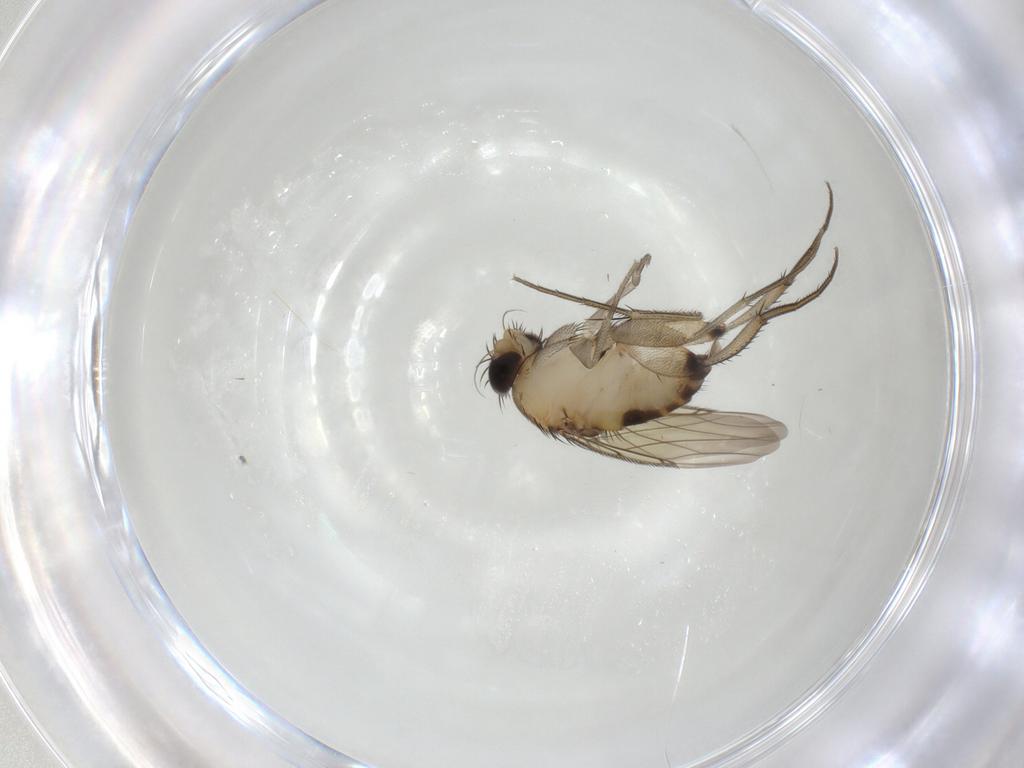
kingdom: Animalia
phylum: Arthropoda
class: Insecta
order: Diptera
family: Phoridae
